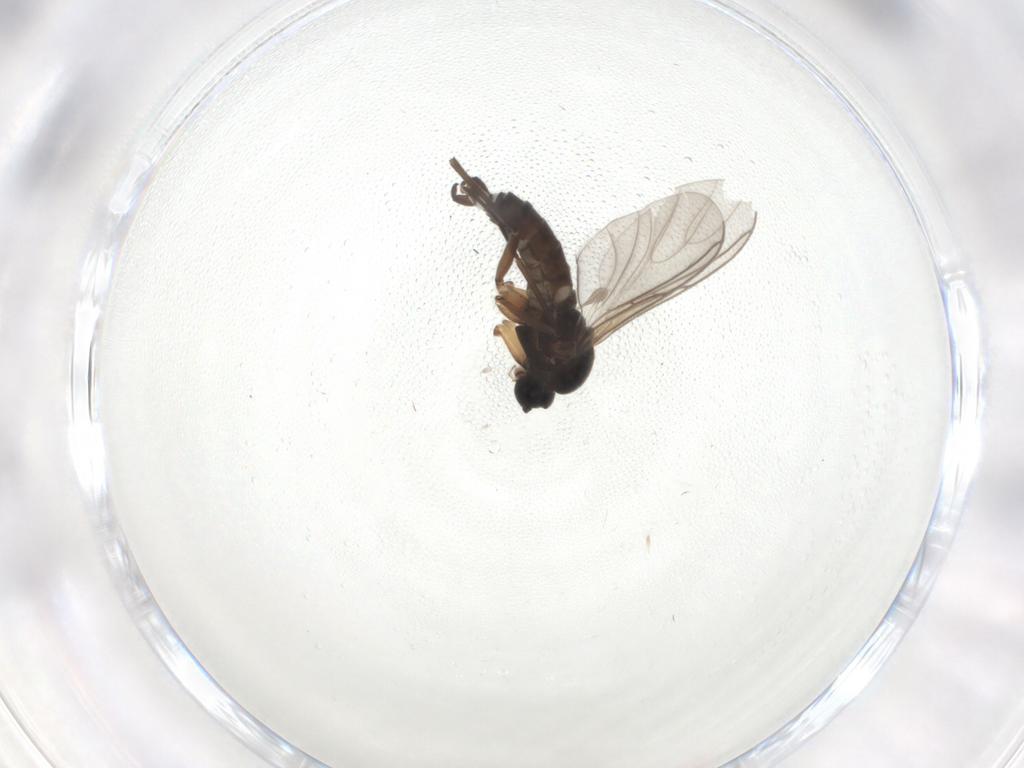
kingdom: Animalia
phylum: Arthropoda
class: Insecta
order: Diptera
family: Sciaridae
